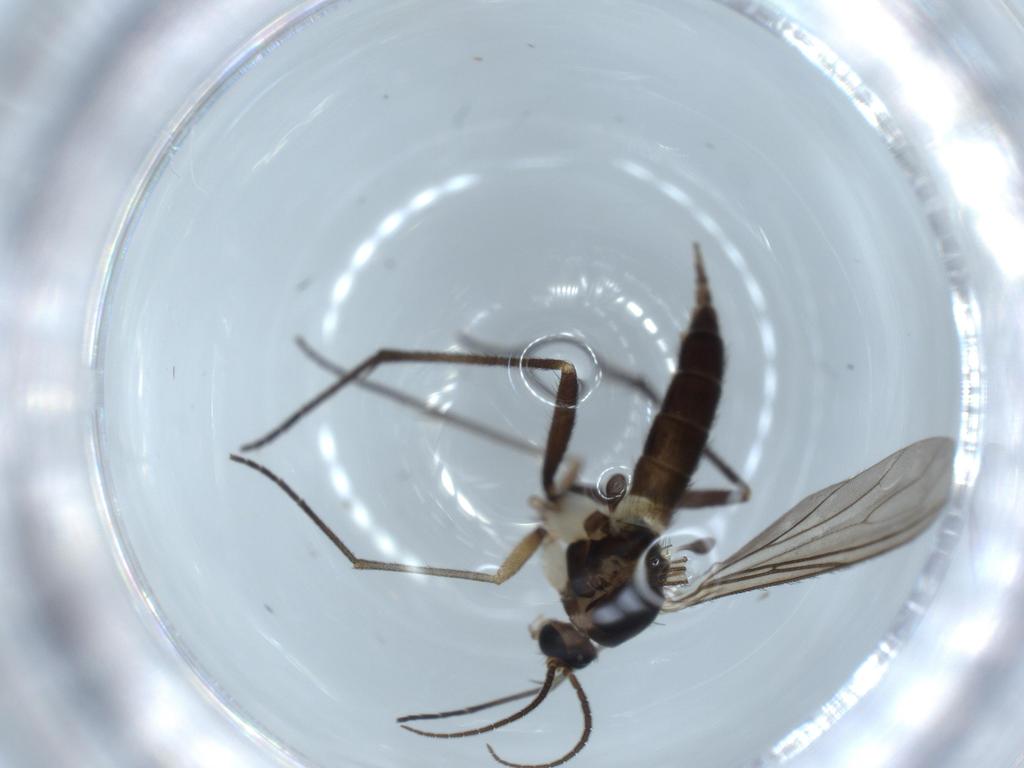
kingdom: Animalia
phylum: Arthropoda
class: Insecta
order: Diptera
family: Sciaridae
